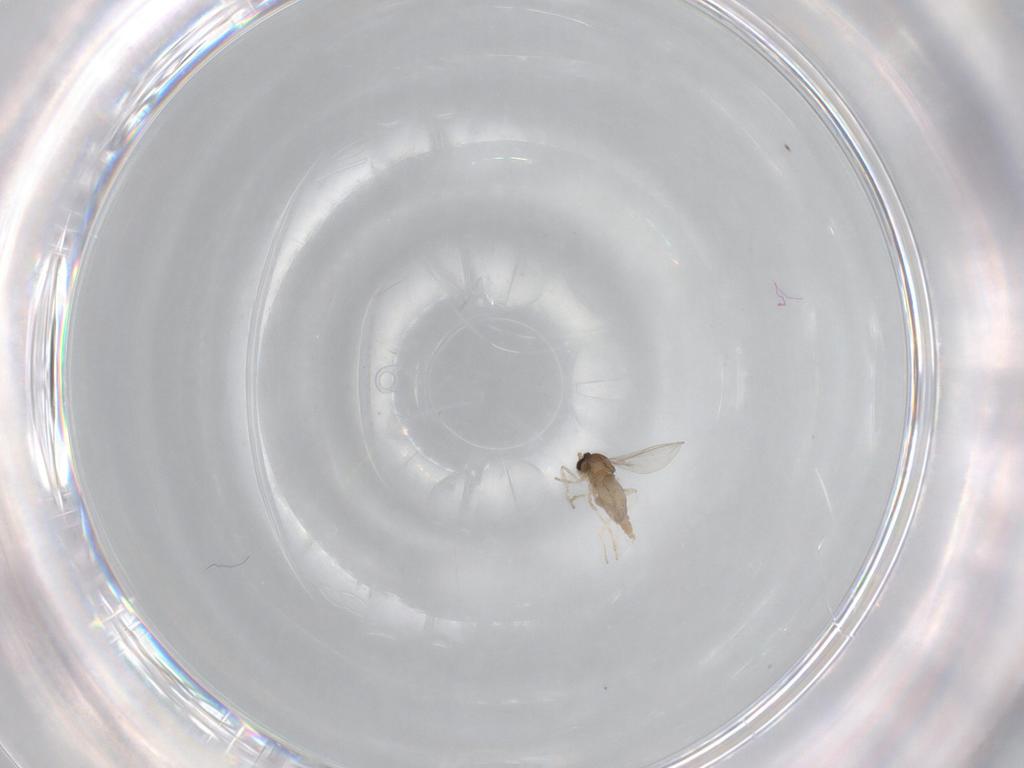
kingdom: Animalia
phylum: Arthropoda
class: Insecta
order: Diptera
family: Cecidomyiidae
